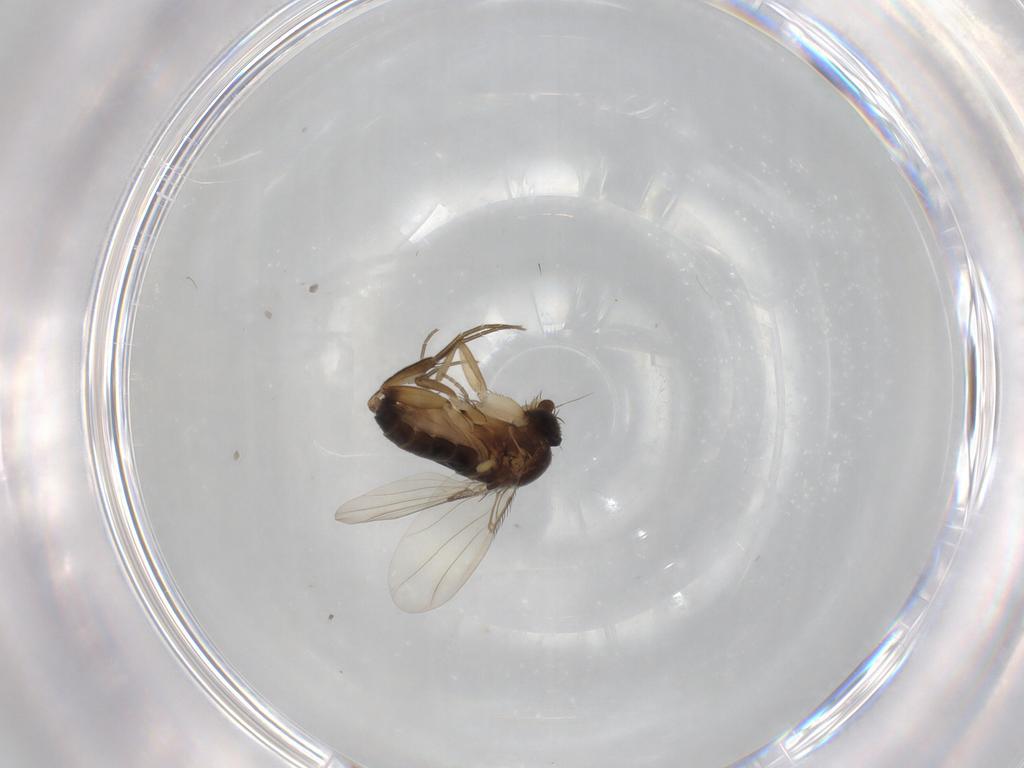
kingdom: Animalia
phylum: Arthropoda
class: Insecta
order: Diptera
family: Phoridae
